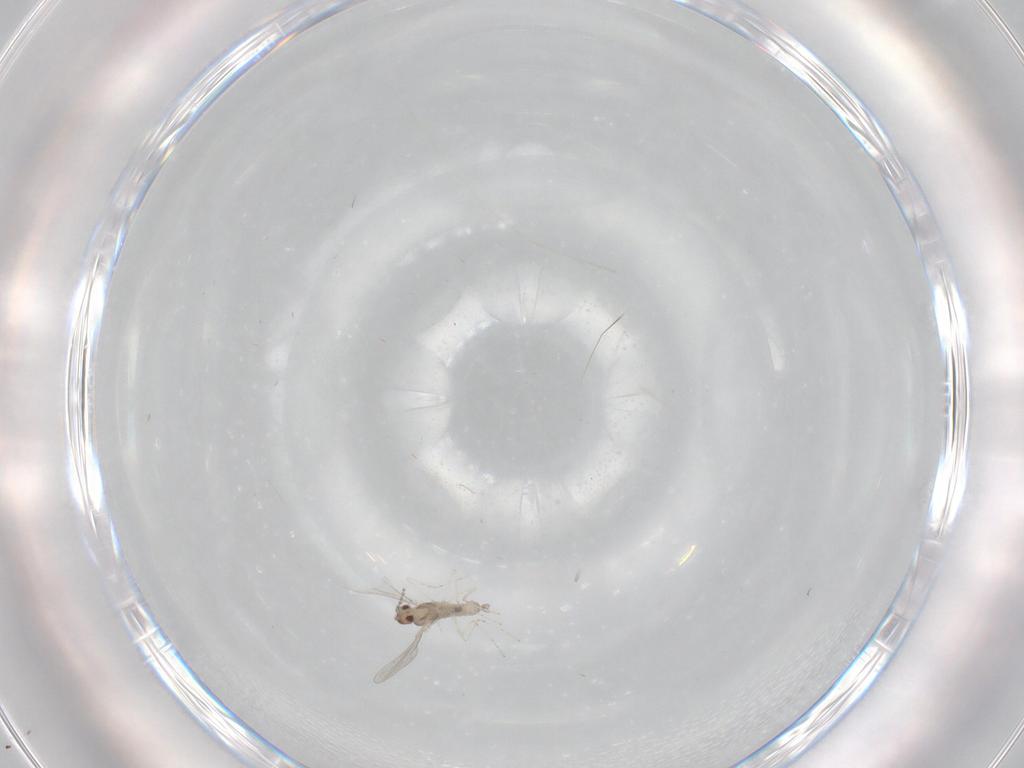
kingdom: Animalia
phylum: Arthropoda
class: Insecta
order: Diptera
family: Cecidomyiidae
